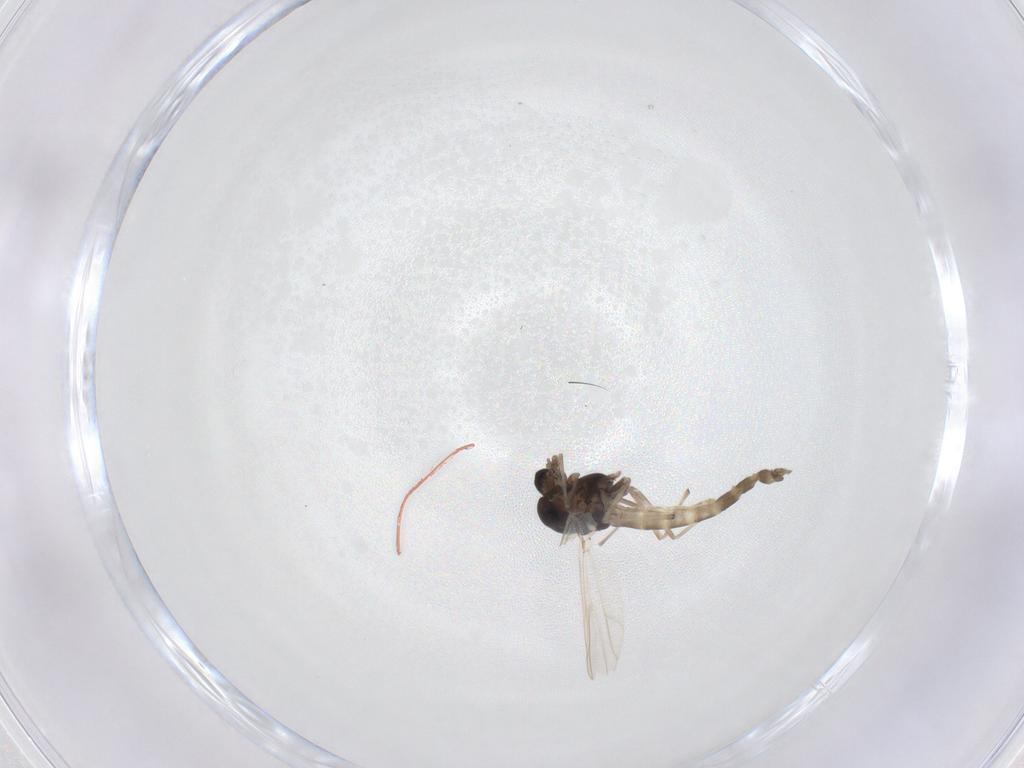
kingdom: Animalia
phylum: Arthropoda
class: Insecta
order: Diptera
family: Chironomidae
